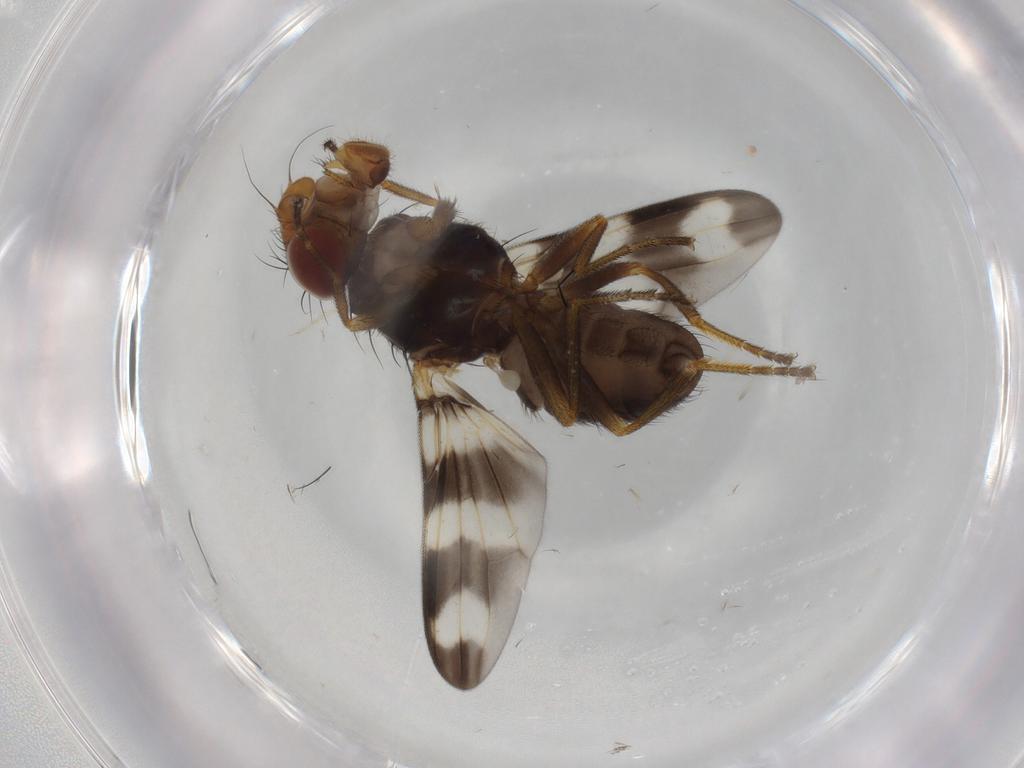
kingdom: Animalia
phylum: Arthropoda
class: Insecta
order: Diptera
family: Ulidiidae
